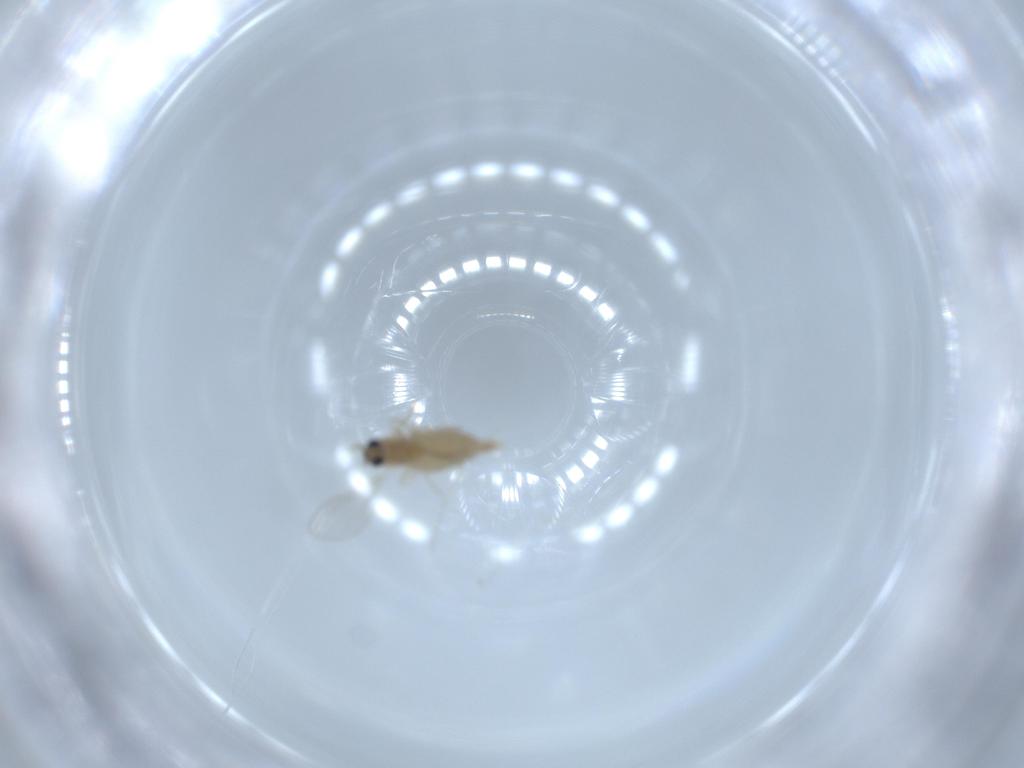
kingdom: Animalia
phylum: Arthropoda
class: Insecta
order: Diptera
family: Cecidomyiidae
